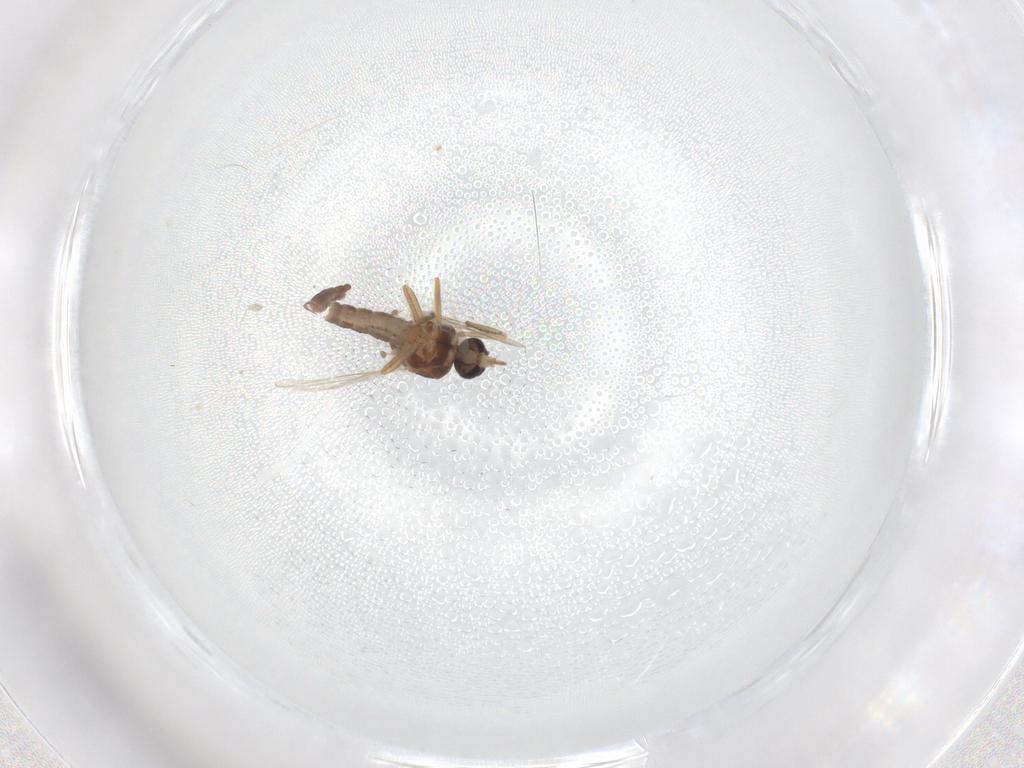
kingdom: Animalia
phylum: Arthropoda
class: Insecta
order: Diptera
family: Ceratopogonidae
